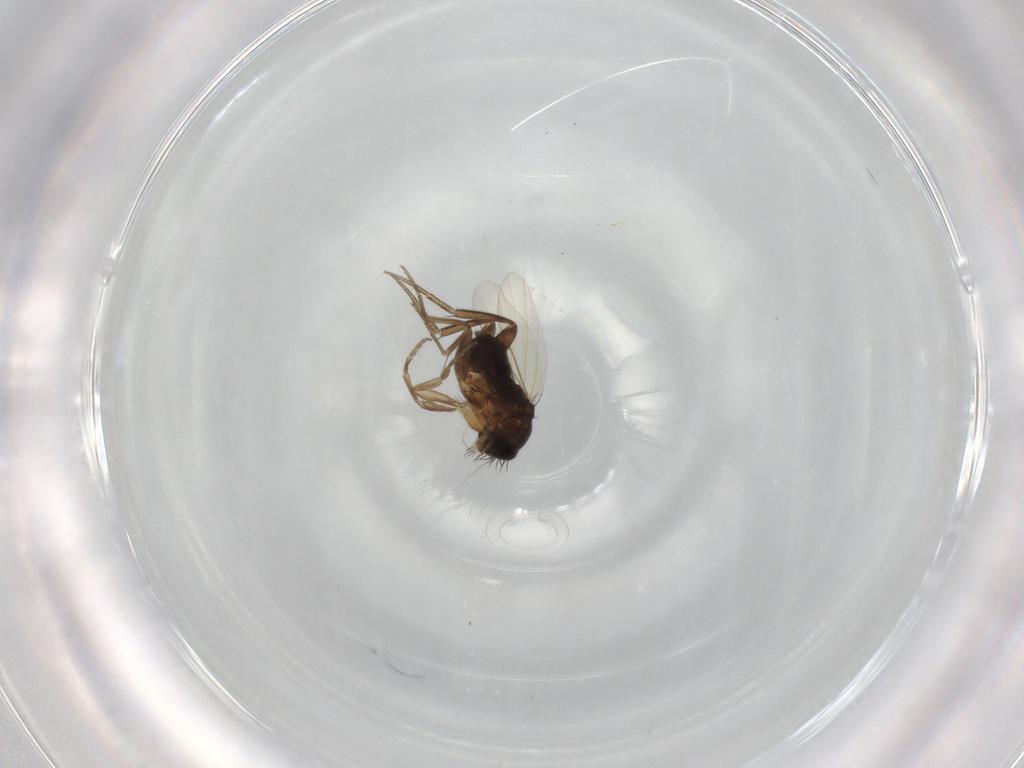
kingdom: Animalia
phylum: Arthropoda
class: Insecta
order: Diptera
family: Phoridae
